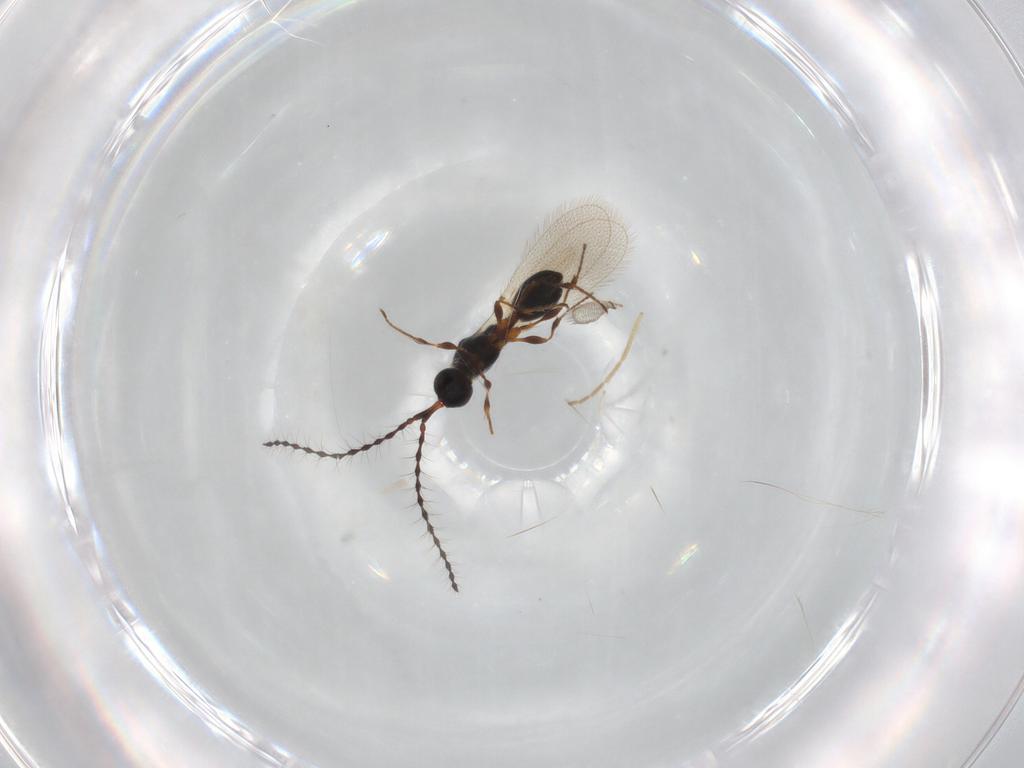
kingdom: Animalia
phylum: Arthropoda
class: Insecta
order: Hymenoptera
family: Diapriidae
